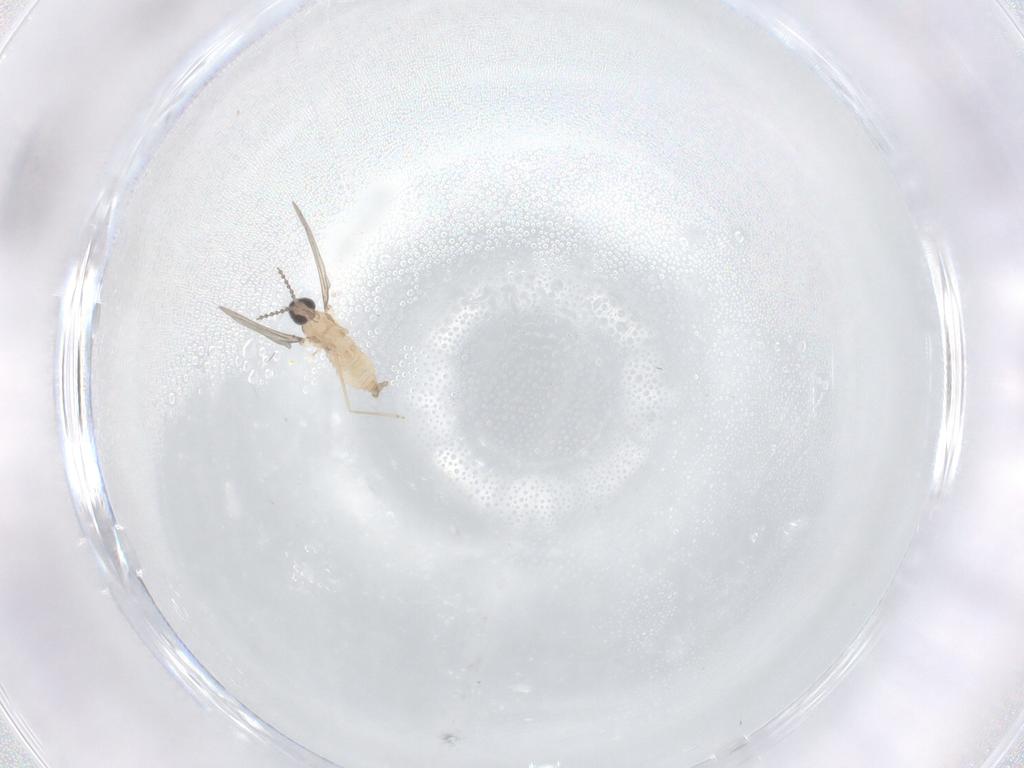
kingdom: Animalia
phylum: Arthropoda
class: Insecta
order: Diptera
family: Cecidomyiidae
